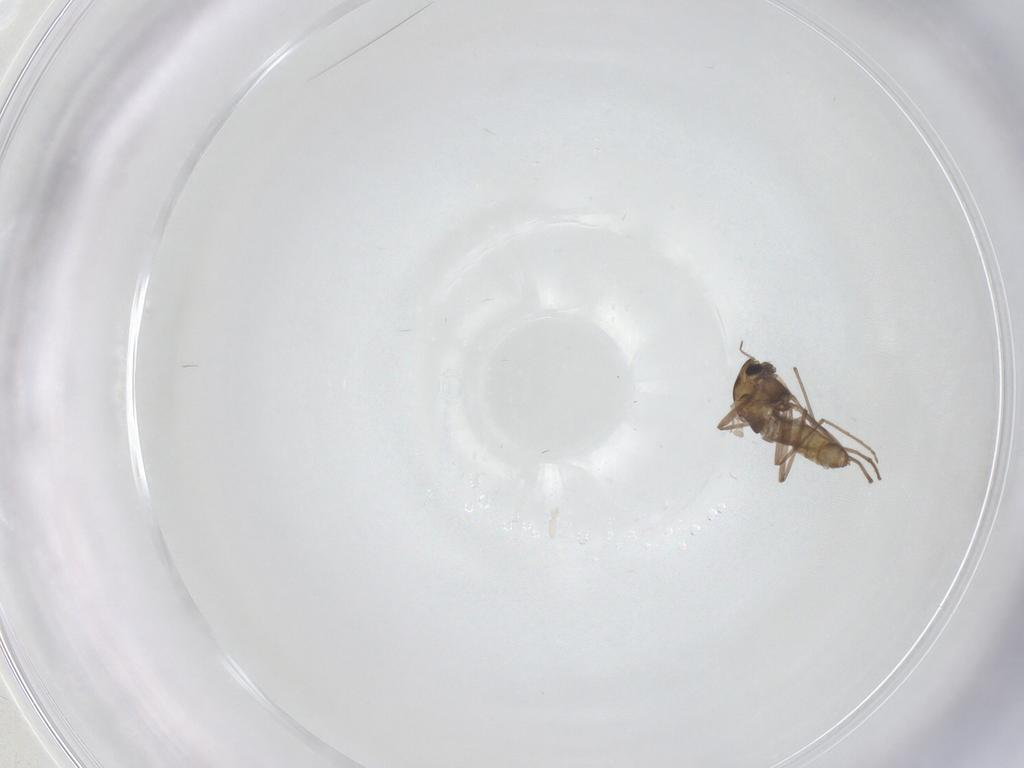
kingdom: Animalia
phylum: Arthropoda
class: Insecta
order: Diptera
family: Chironomidae
